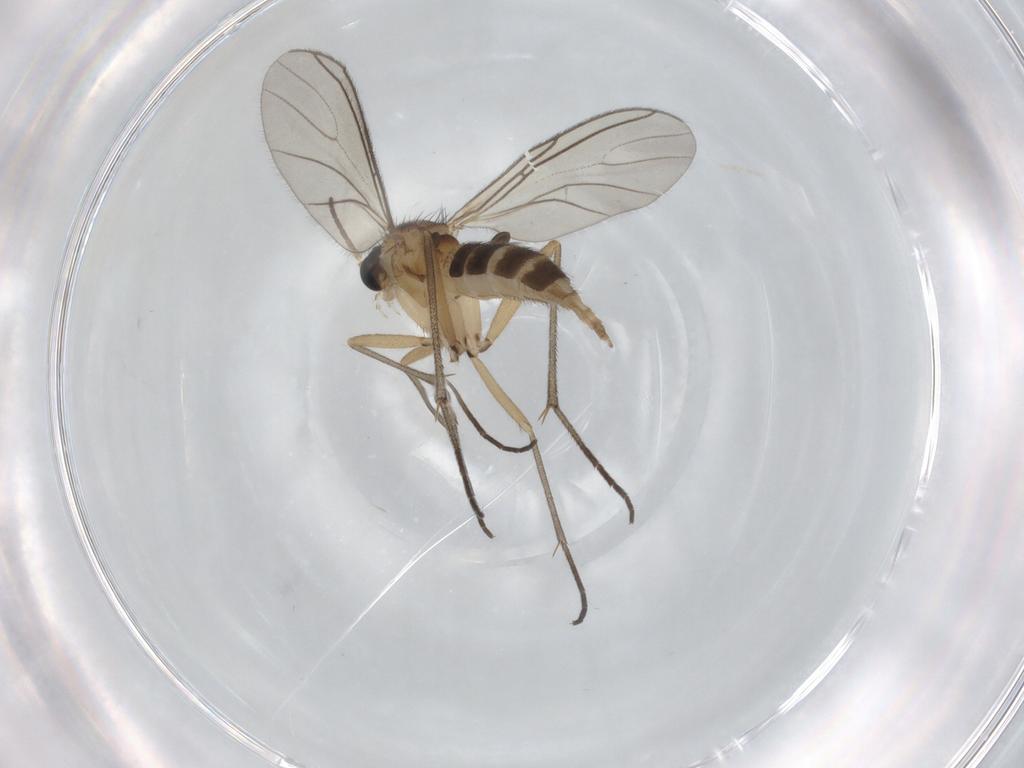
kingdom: Animalia
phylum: Arthropoda
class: Insecta
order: Diptera
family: Sciaridae
